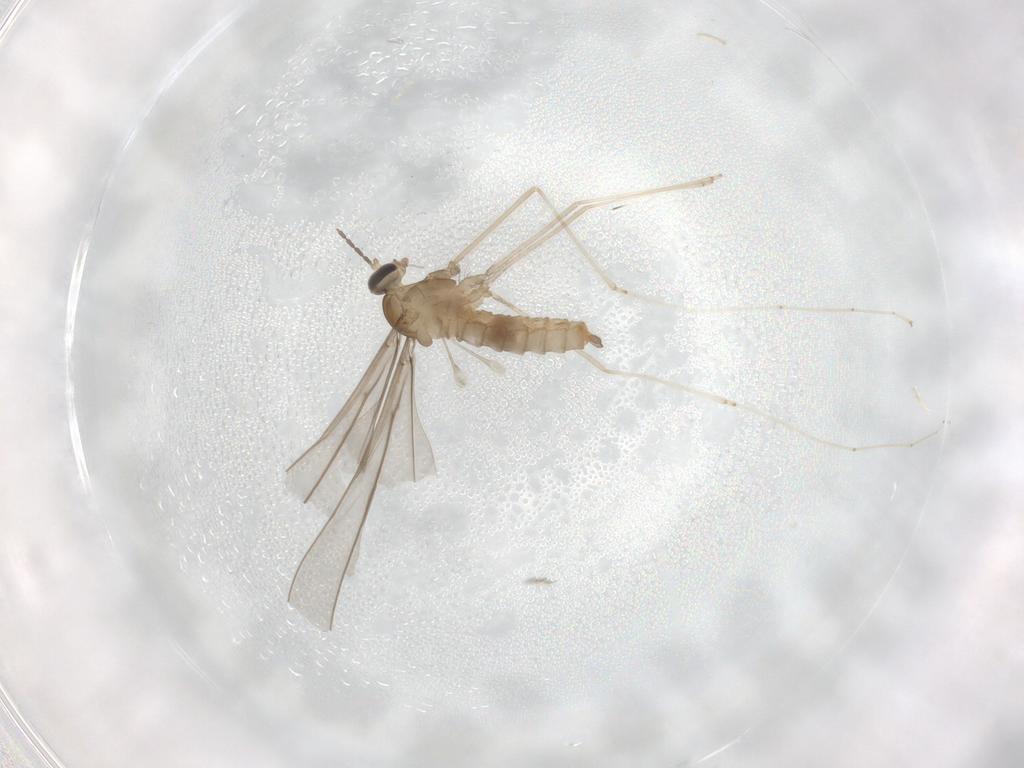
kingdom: Animalia
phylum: Arthropoda
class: Insecta
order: Diptera
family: Cecidomyiidae
